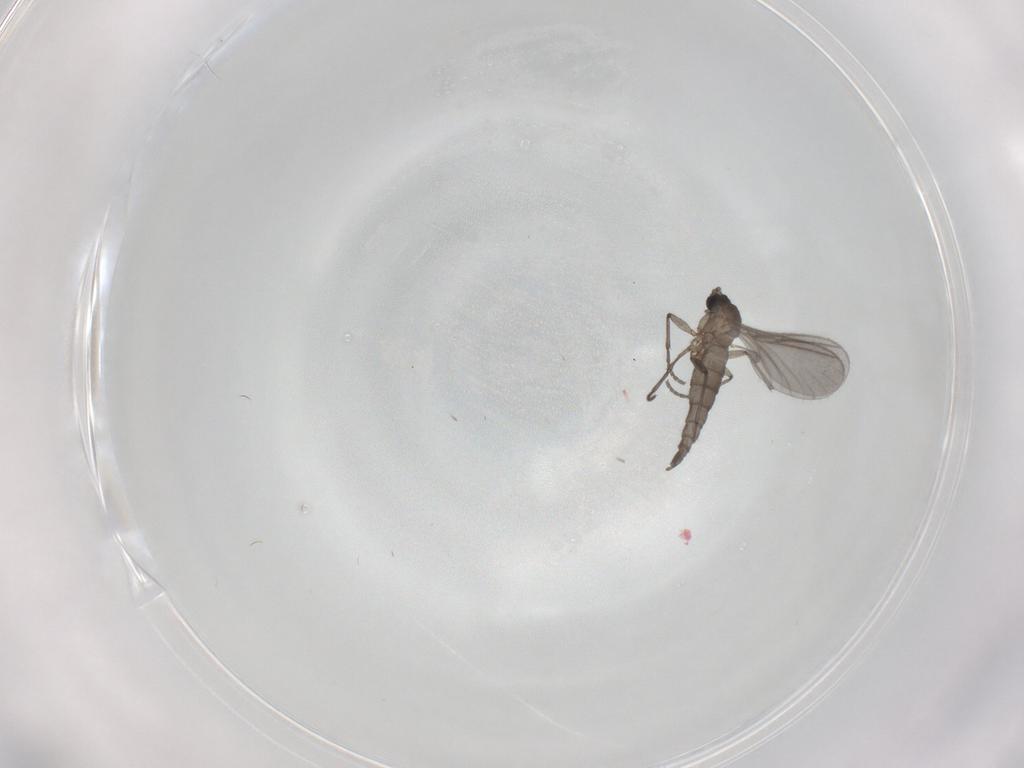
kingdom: Animalia
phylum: Arthropoda
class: Insecta
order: Diptera
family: Sciaridae
